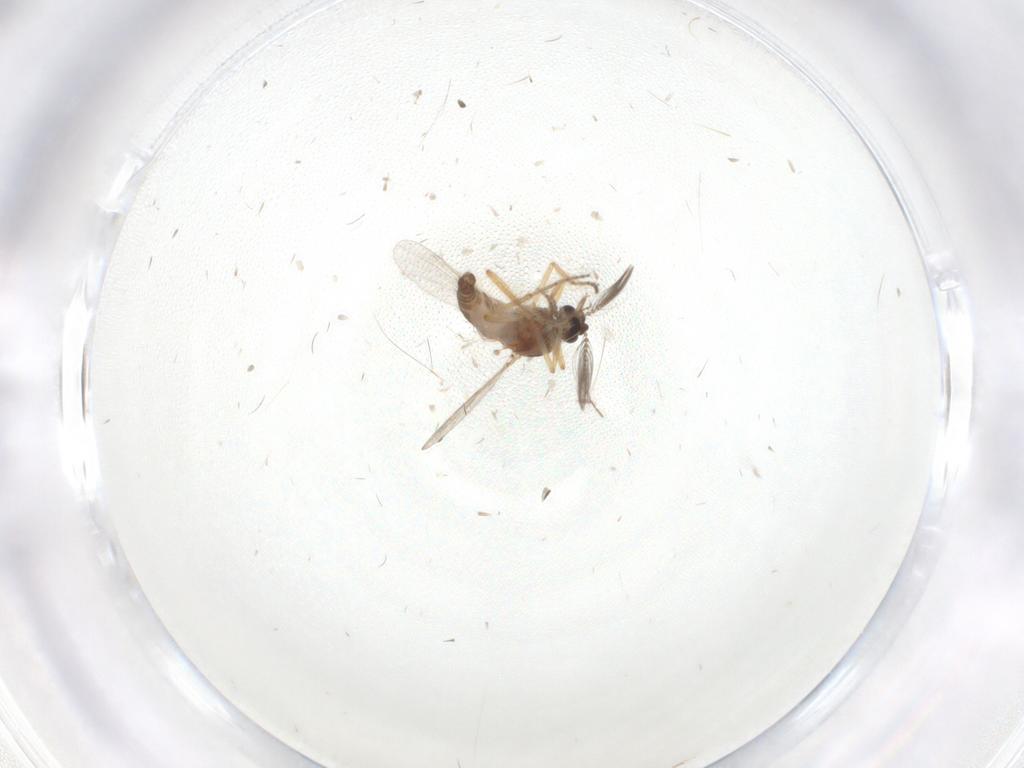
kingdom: Animalia
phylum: Arthropoda
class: Insecta
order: Diptera
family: Ceratopogonidae
